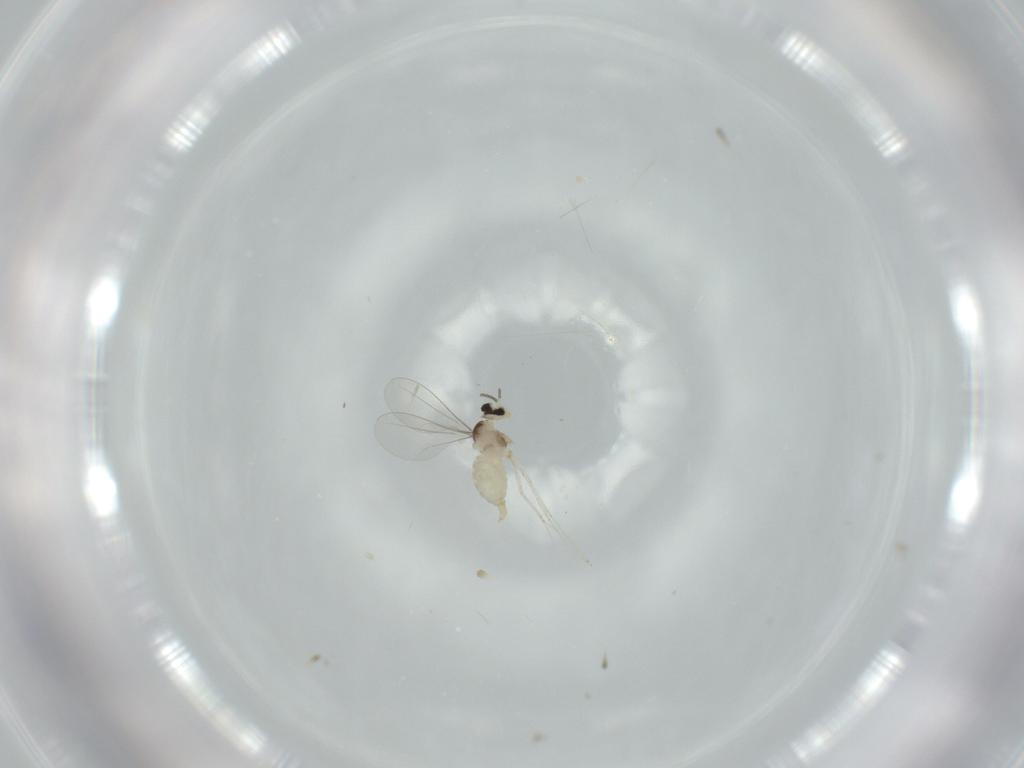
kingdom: Animalia
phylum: Arthropoda
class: Insecta
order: Diptera
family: Cecidomyiidae
